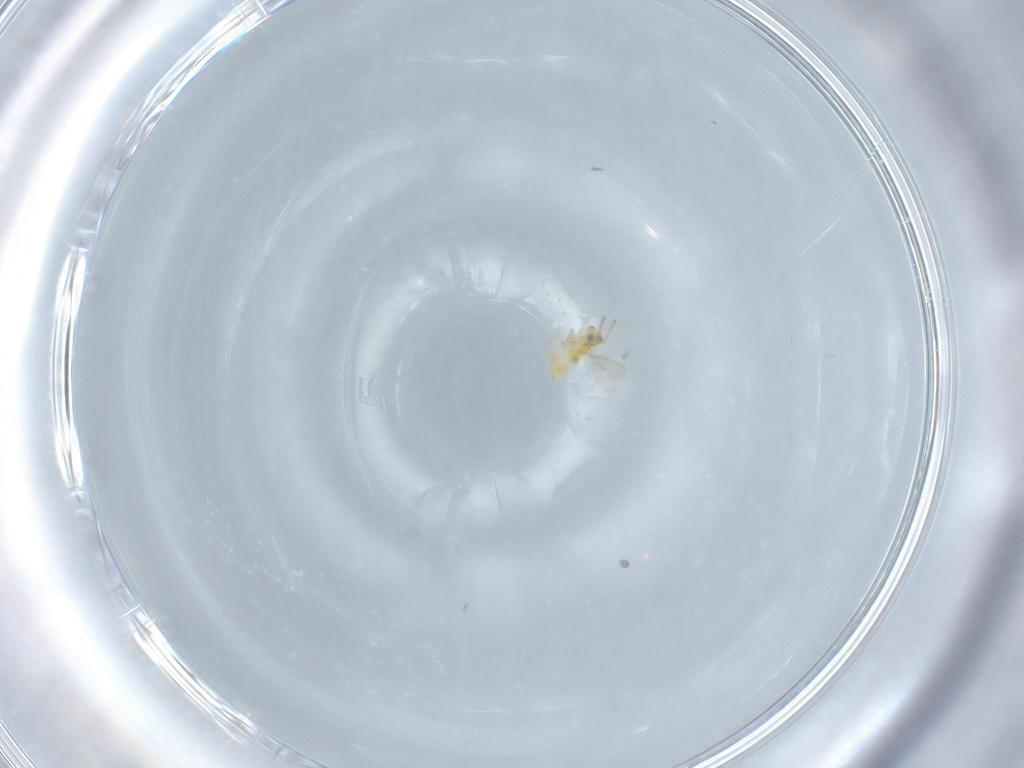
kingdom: Animalia
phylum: Arthropoda
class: Insecta
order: Hymenoptera
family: Aphelinidae
